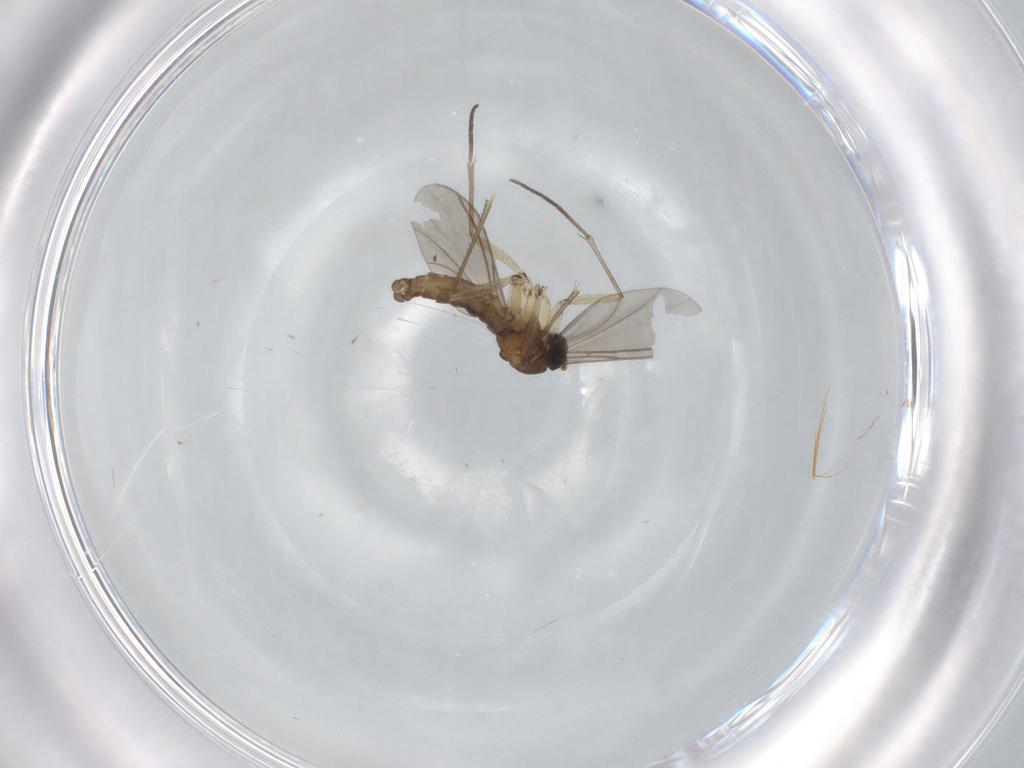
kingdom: Animalia
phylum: Arthropoda
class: Insecta
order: Diptera
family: Sciaridae
